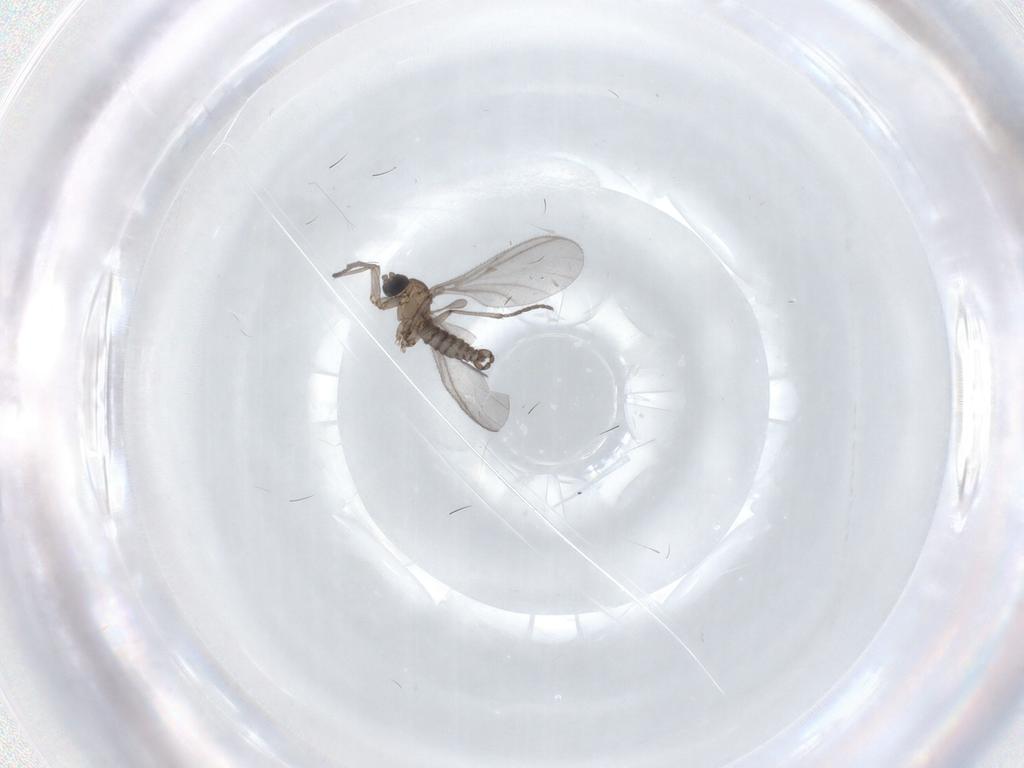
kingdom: Animalia
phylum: Arthropoda
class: Insecta
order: Diptera
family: Sciaridae
